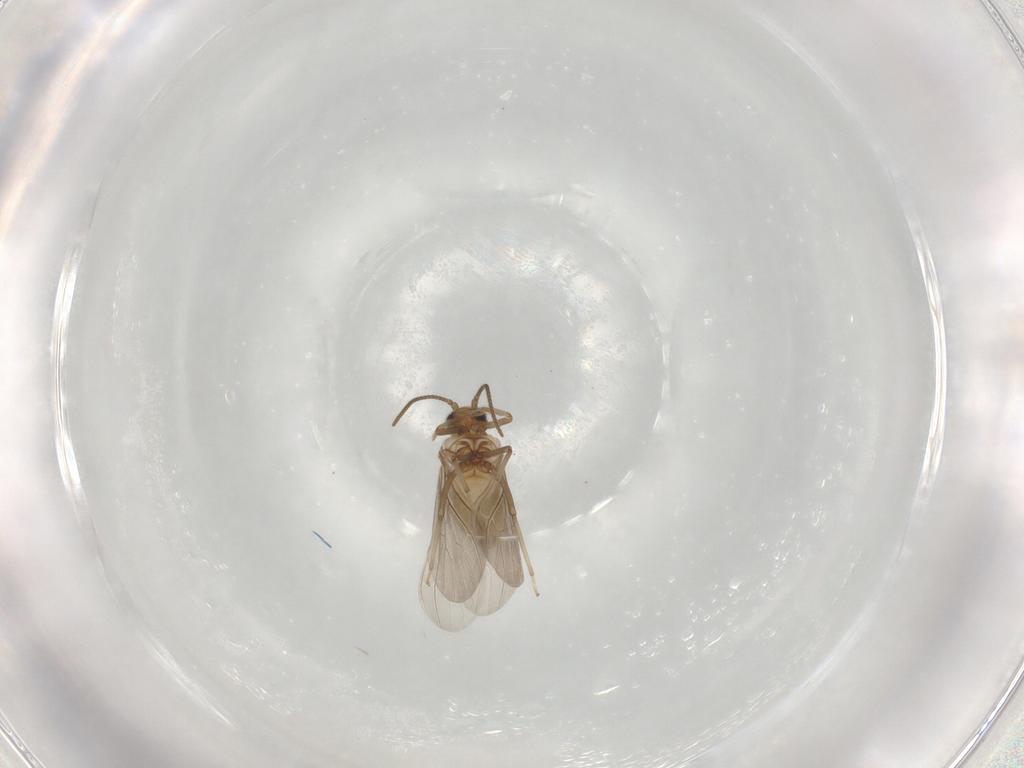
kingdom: Animalia
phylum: Arthropoda
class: Insecta
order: Neuroptera
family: Coniopterygidae
